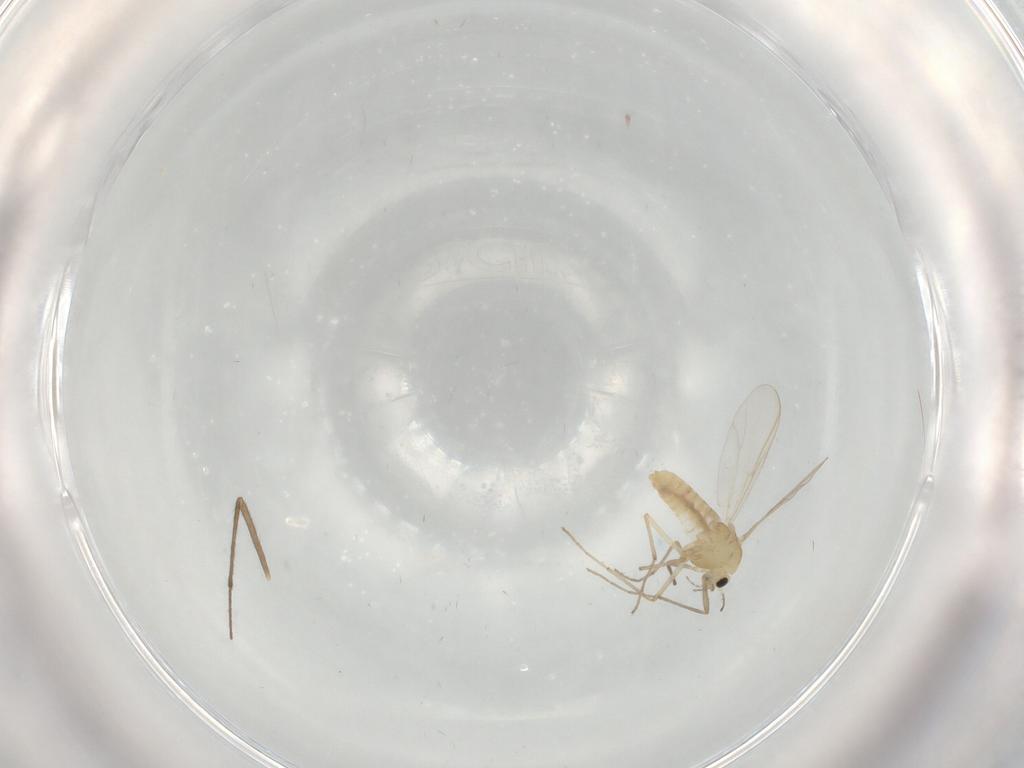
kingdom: Animalia
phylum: Arthropoda
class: Insecta
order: Diptera
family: Chironomidae
